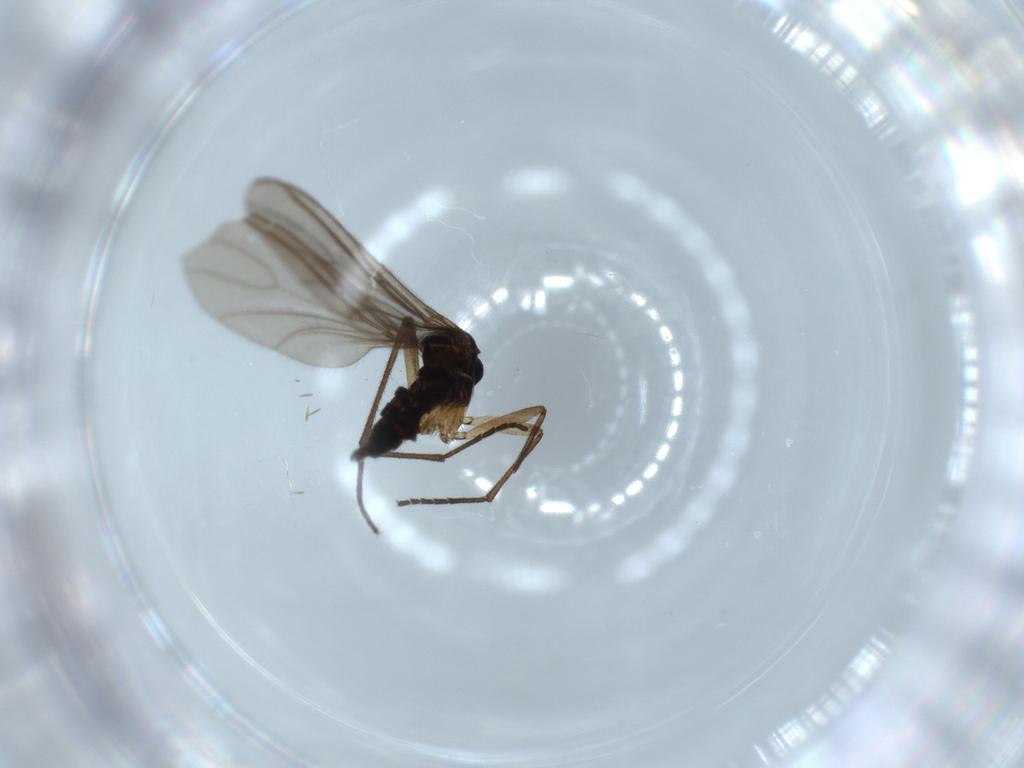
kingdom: Animalia
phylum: Arthropoda
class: Insecta
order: Diptera
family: Sciaridae
